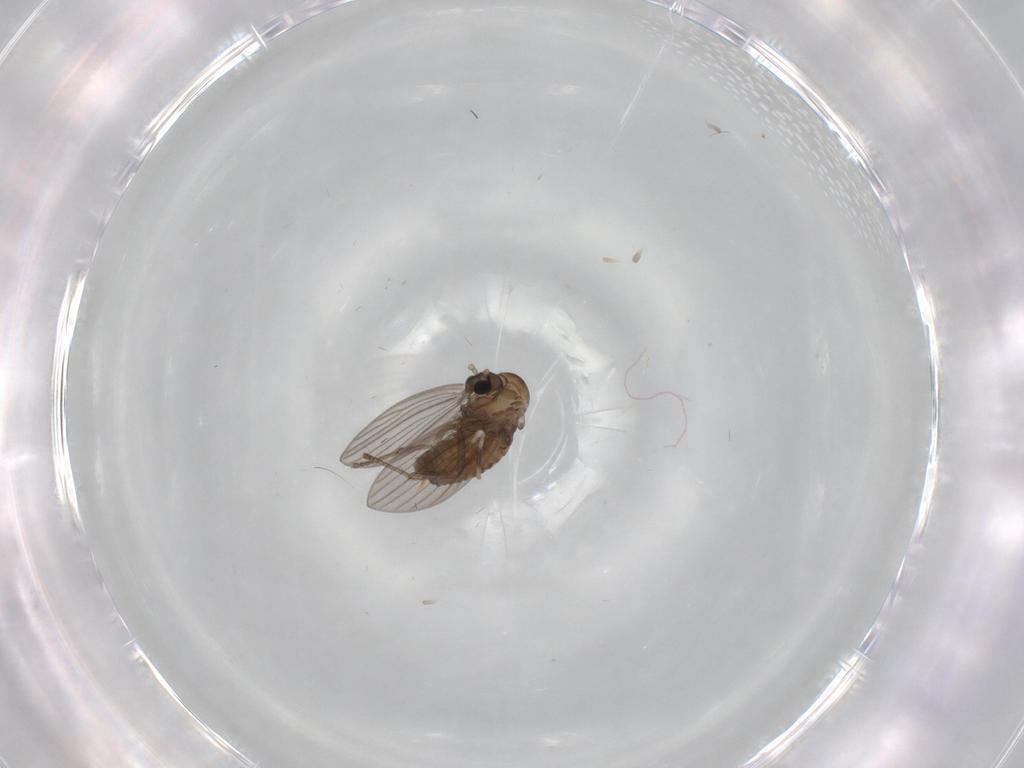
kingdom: Animalia
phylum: Arthropoda
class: Insecta
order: Diptera
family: Psychodidae
